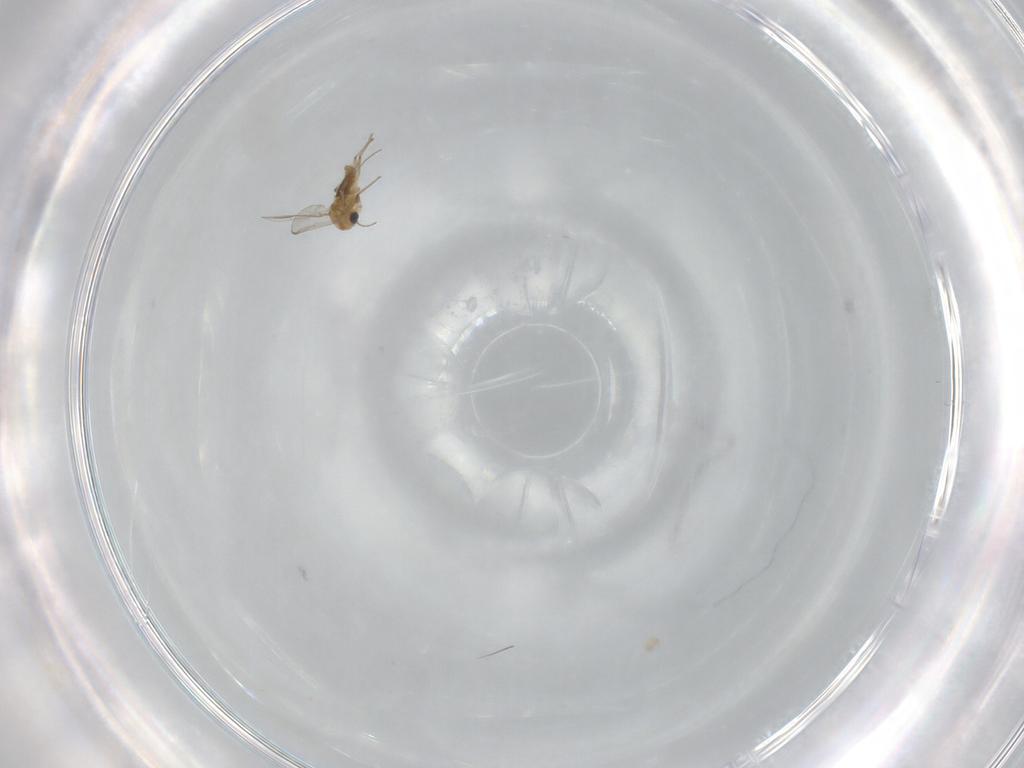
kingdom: Animalia
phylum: Arthropoda
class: Insecta
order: Diptera
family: Chironomidae
